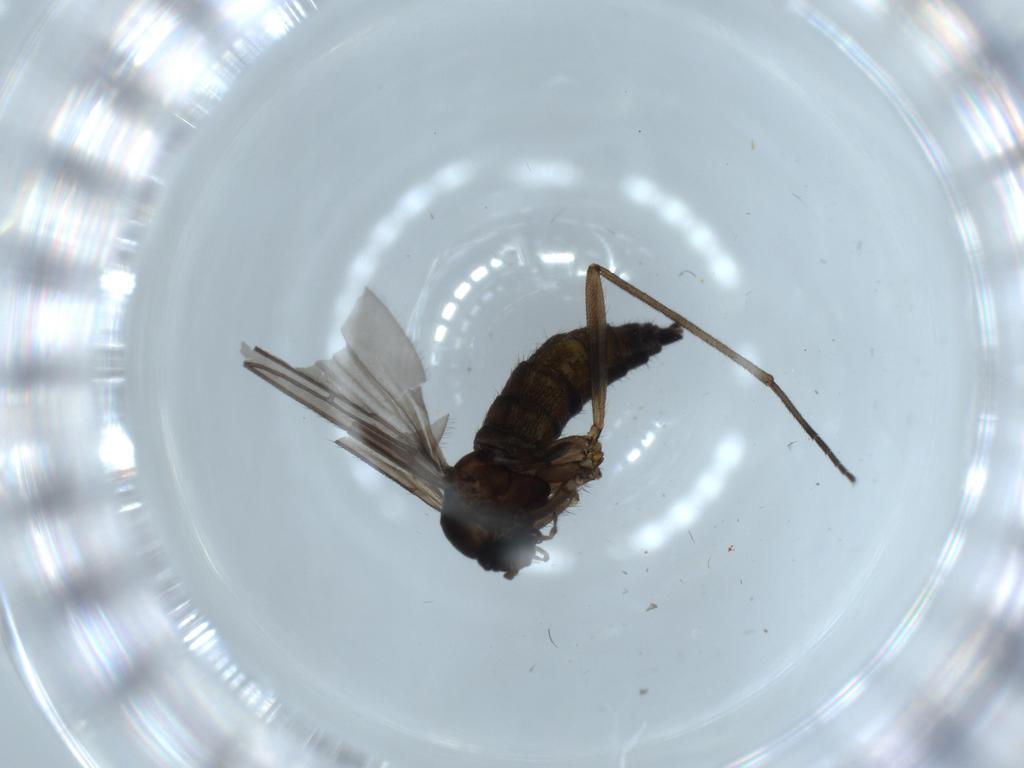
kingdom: Animalia
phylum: Arthropoda
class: Insecta
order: Diptera
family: Sciaridae
